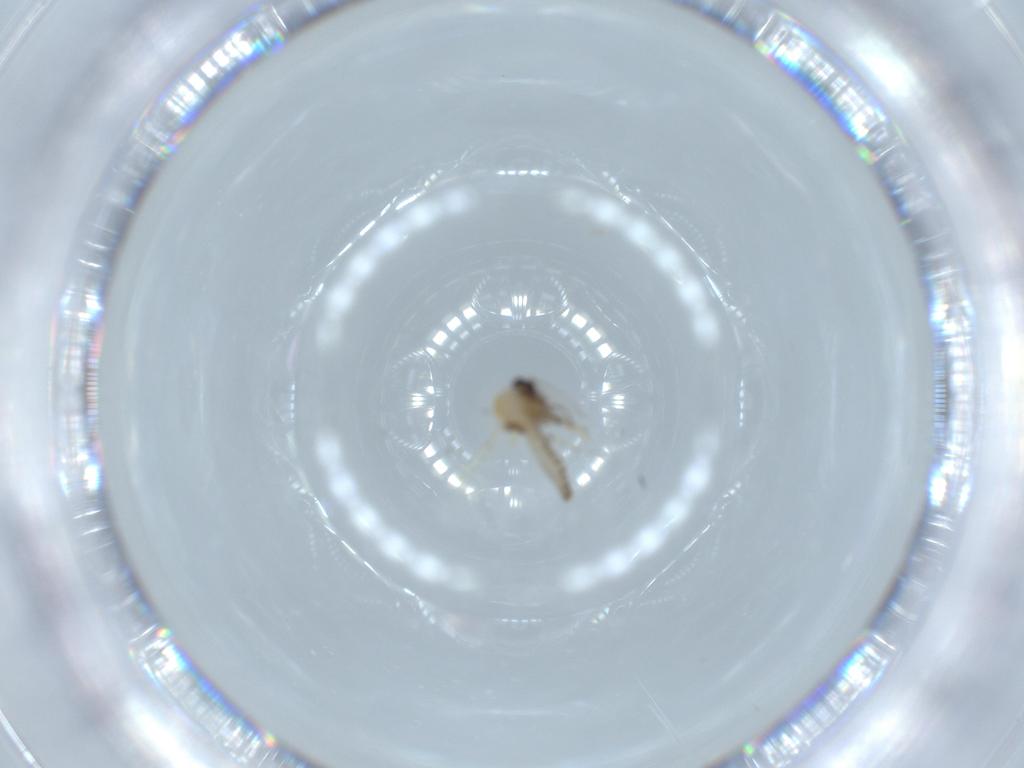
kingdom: Animalia
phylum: Arthropoda
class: Insecta
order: Diptera
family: Ceratopogonidae
